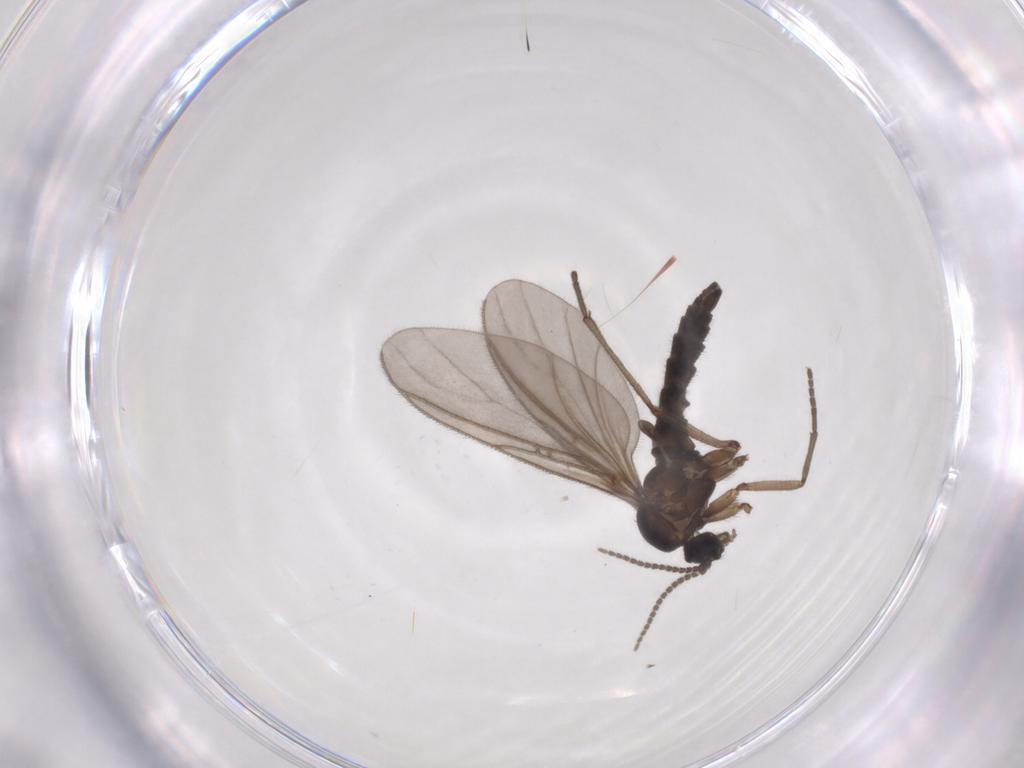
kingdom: Animalia
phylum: Arthropoda
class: Insecta
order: Diptera
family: Sciaridae
